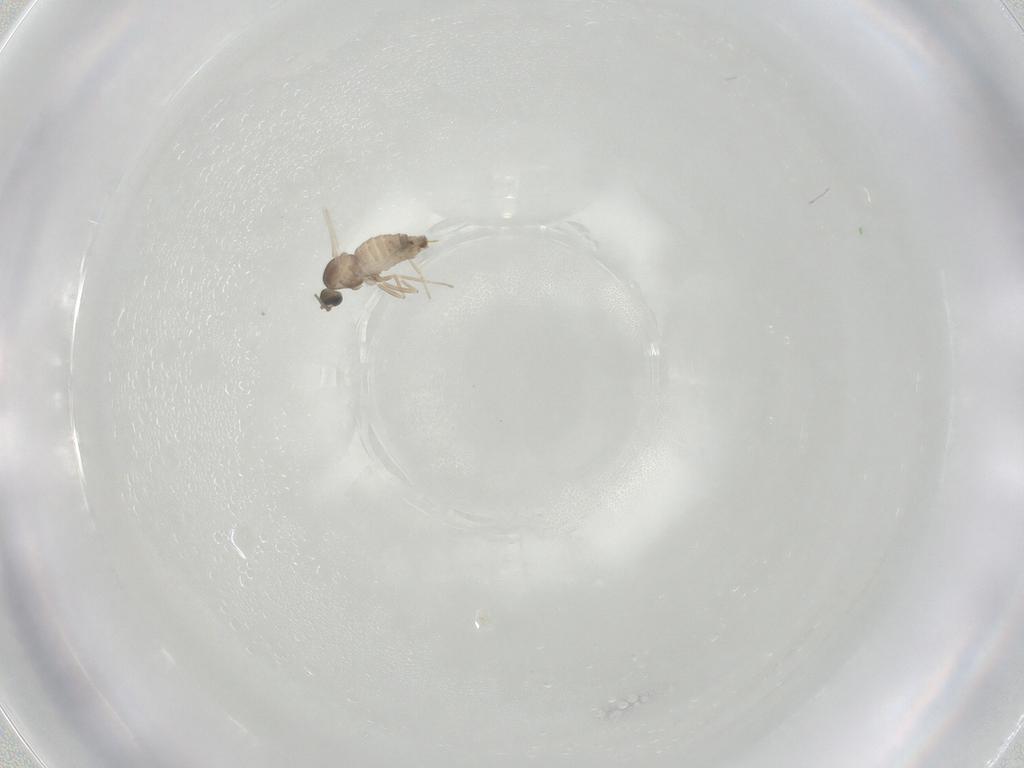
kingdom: Animalia
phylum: Arthropoda
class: Insecta
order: Diptera
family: Cecidomyiidae
